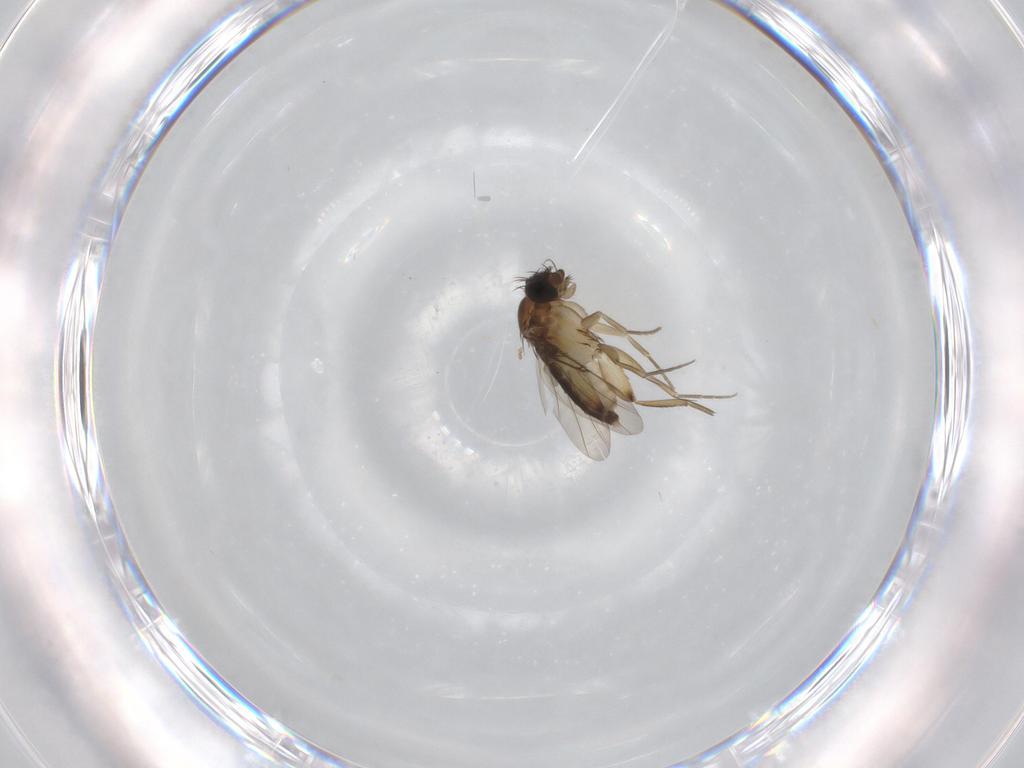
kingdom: Animalia
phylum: Arthropoda
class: Insecta
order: Diptera
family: Phoridae
